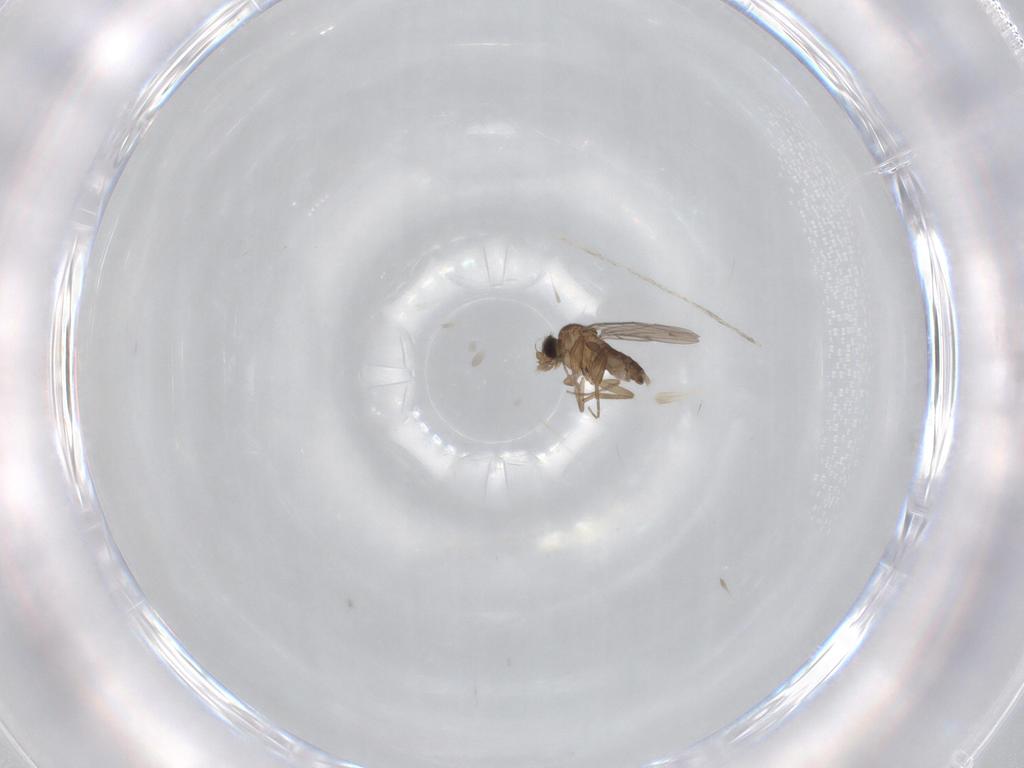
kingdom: Animalia
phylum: Arthropoda
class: Insecta
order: Diptera
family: Phoridae
